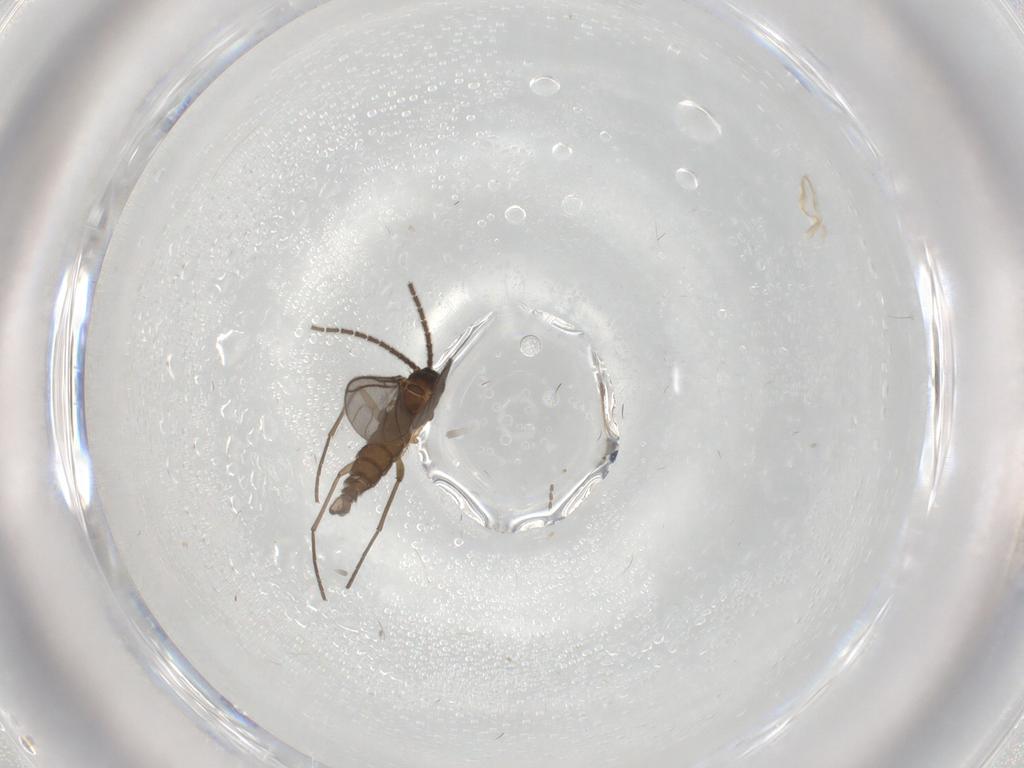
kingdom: Animalia
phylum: Arthropoda
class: Insecta
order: Diptera
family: Sciaridae
